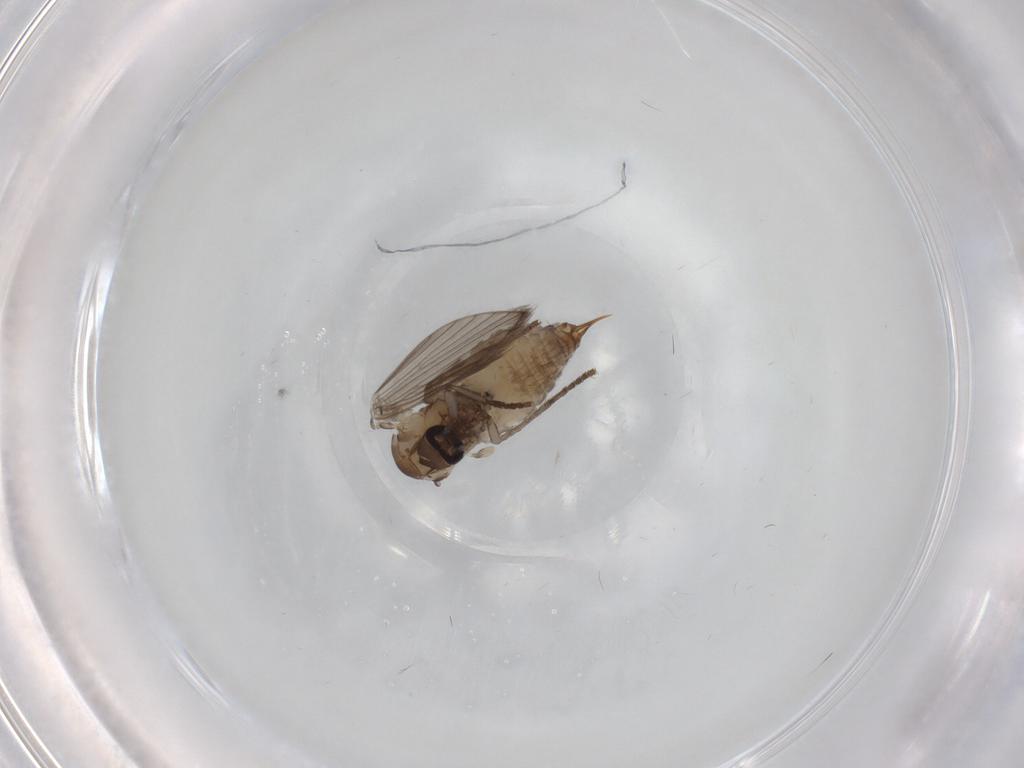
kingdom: Animalia
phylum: Arthropoda
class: Insecta
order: Diptera
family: Psychodidae
